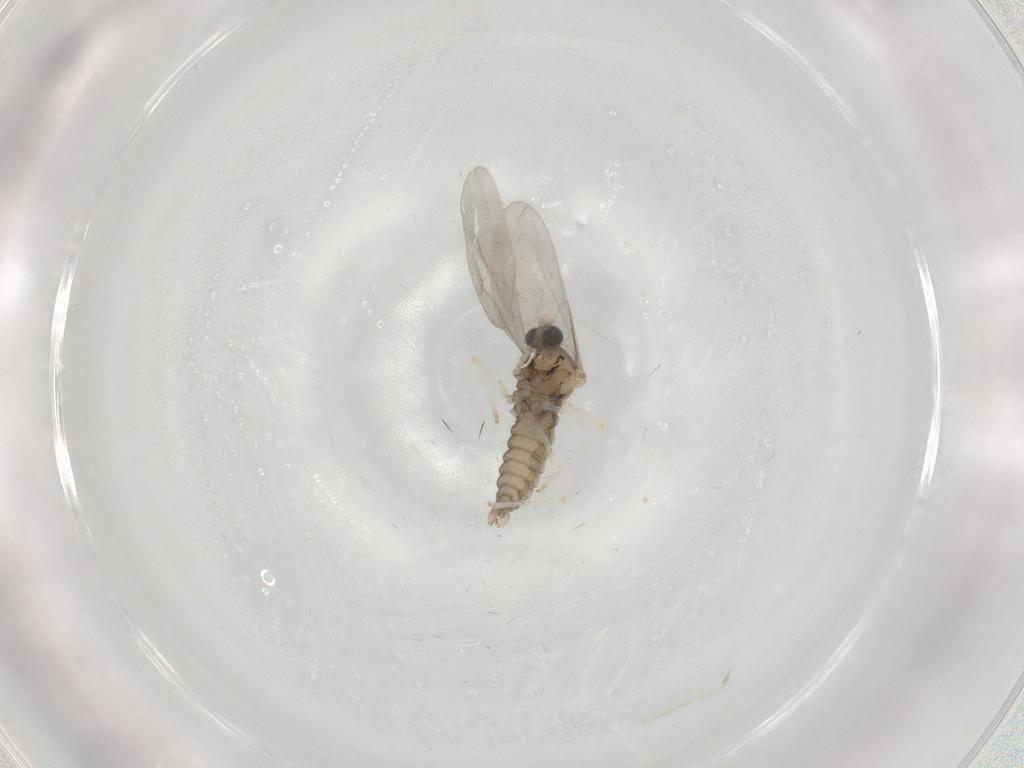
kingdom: Animalia
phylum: Arthropoda
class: Insecta
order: Diptera
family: Cecidomyiidae
